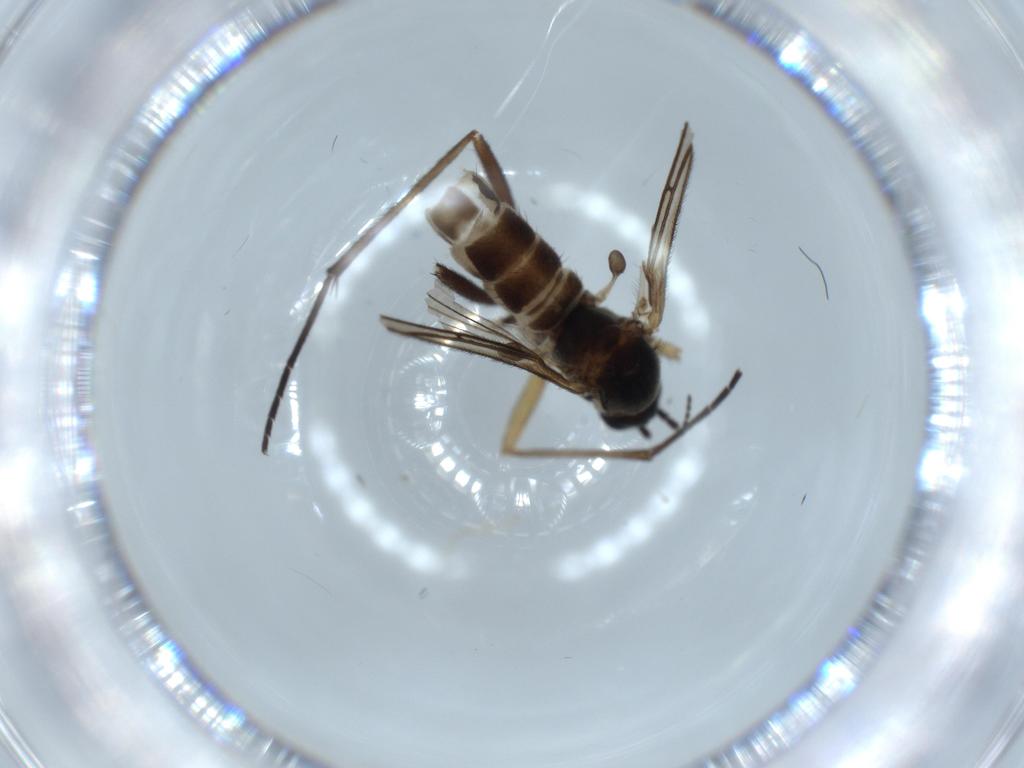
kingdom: Animalia
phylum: Arthropoda
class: Insecta
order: Diptera
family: Sciaridae
